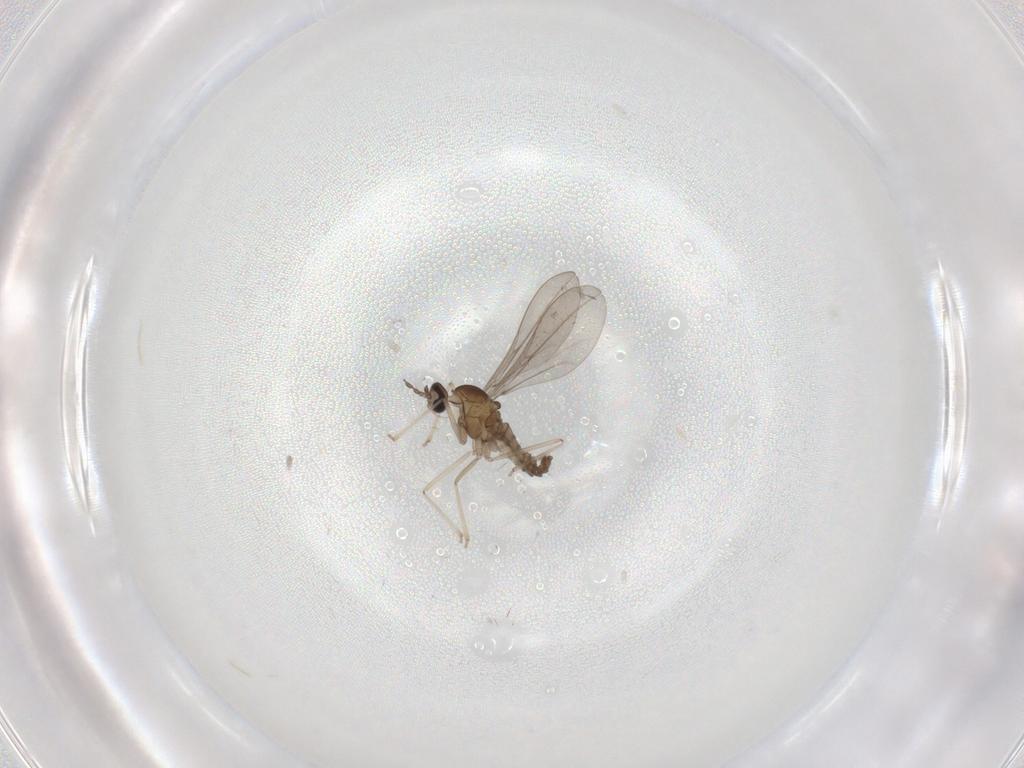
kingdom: Animalia
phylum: Arthropoda
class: Insecta
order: Diptera
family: Cecidomyiidae
